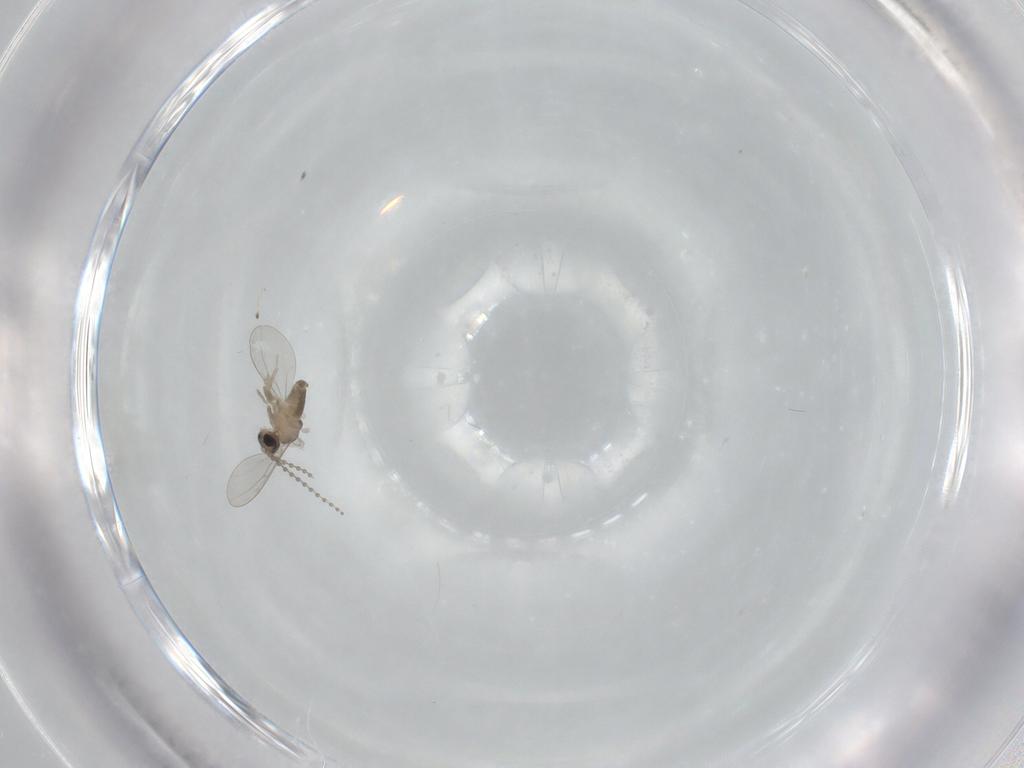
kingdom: Animalia
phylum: Arthropoda
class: Insecta
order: Diptera
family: Cecidomyiidae
